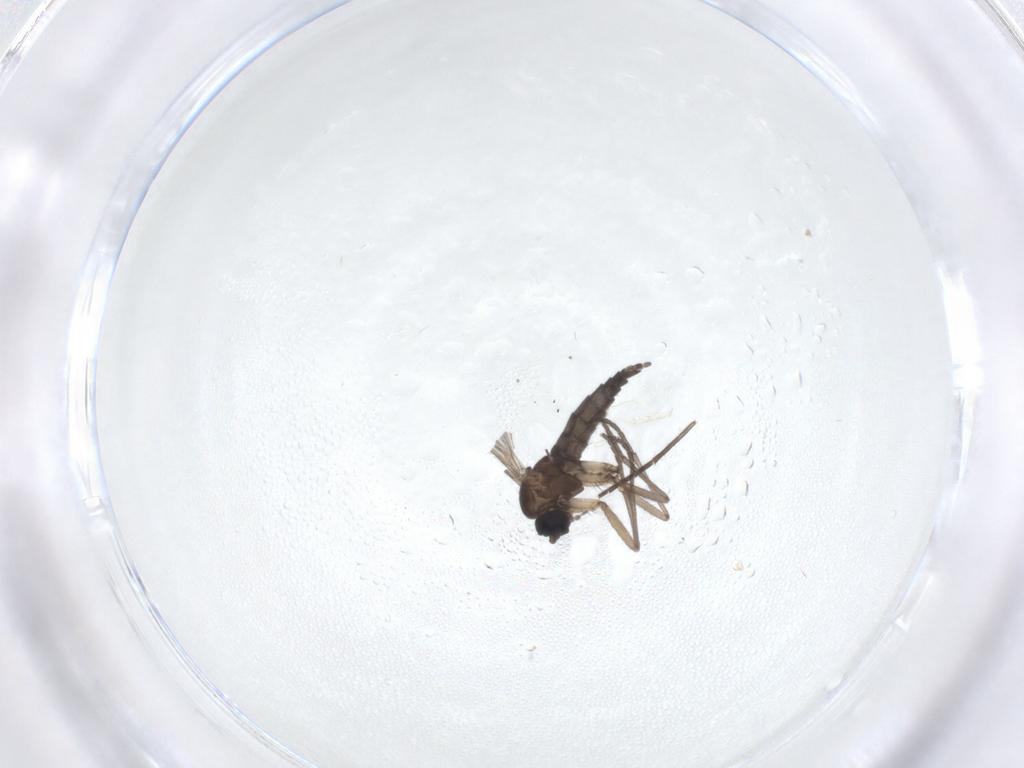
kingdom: Animalia
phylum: Arthropoda
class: Insecta
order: Diptera
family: Sciaridae
